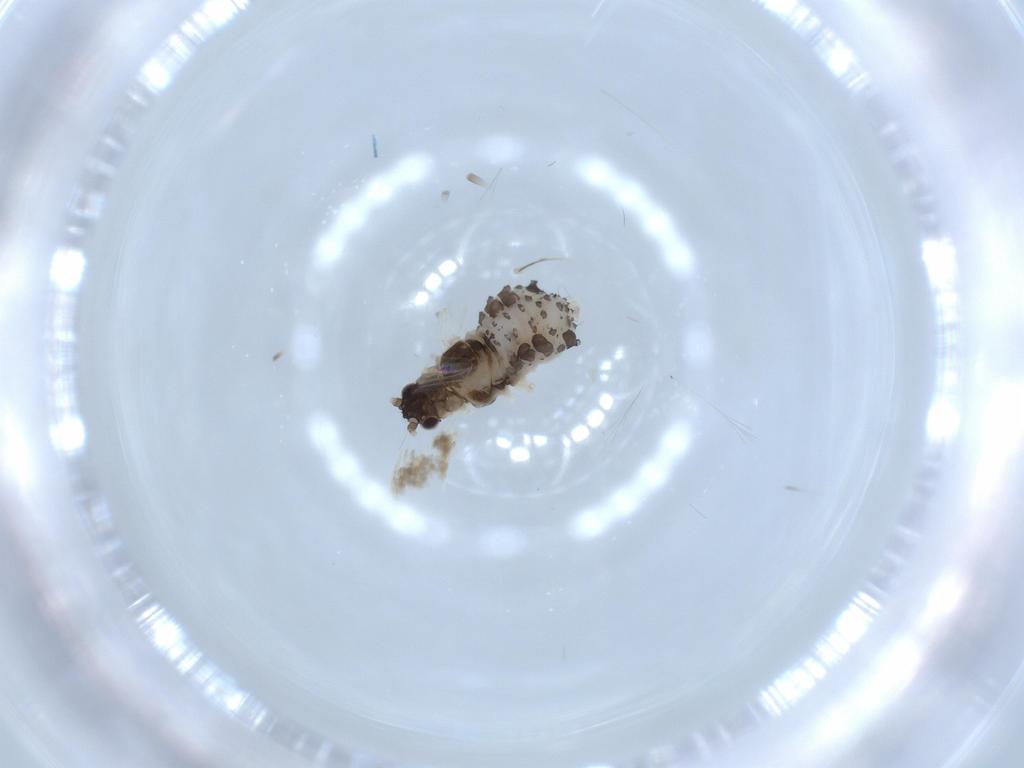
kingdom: Animalia
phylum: Arthropoda
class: Insecta
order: Hemiptera
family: Aphididae
